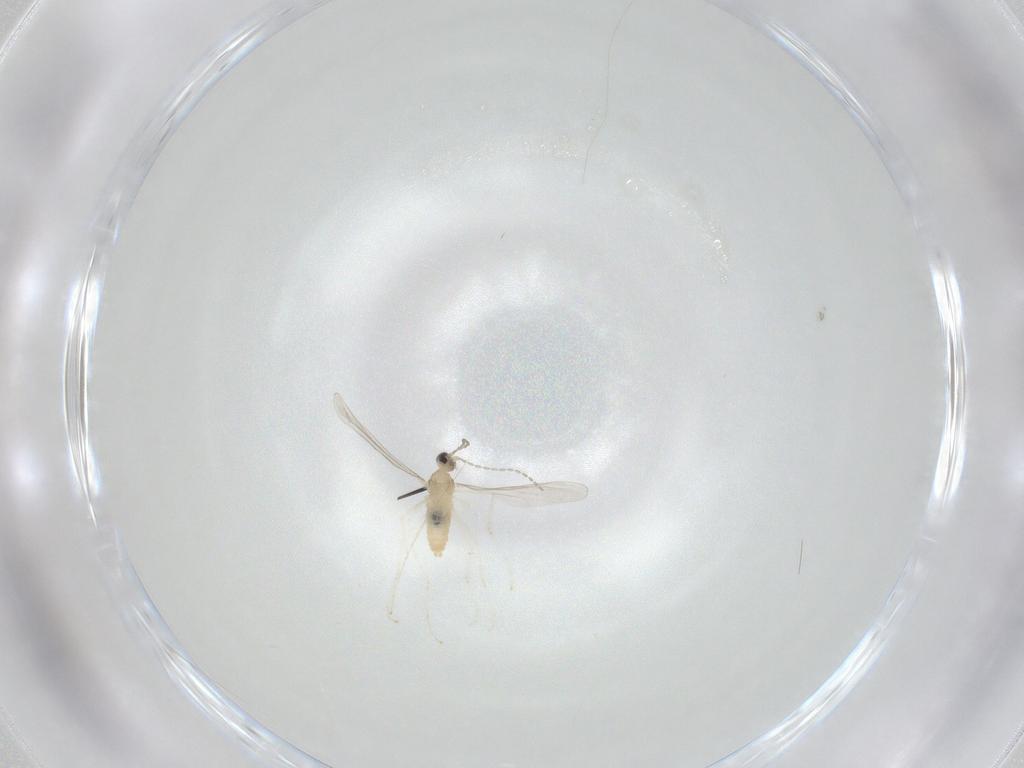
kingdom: Animalia
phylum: Arthropoda
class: Insecta
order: Diptera
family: Cecidomyiidae
